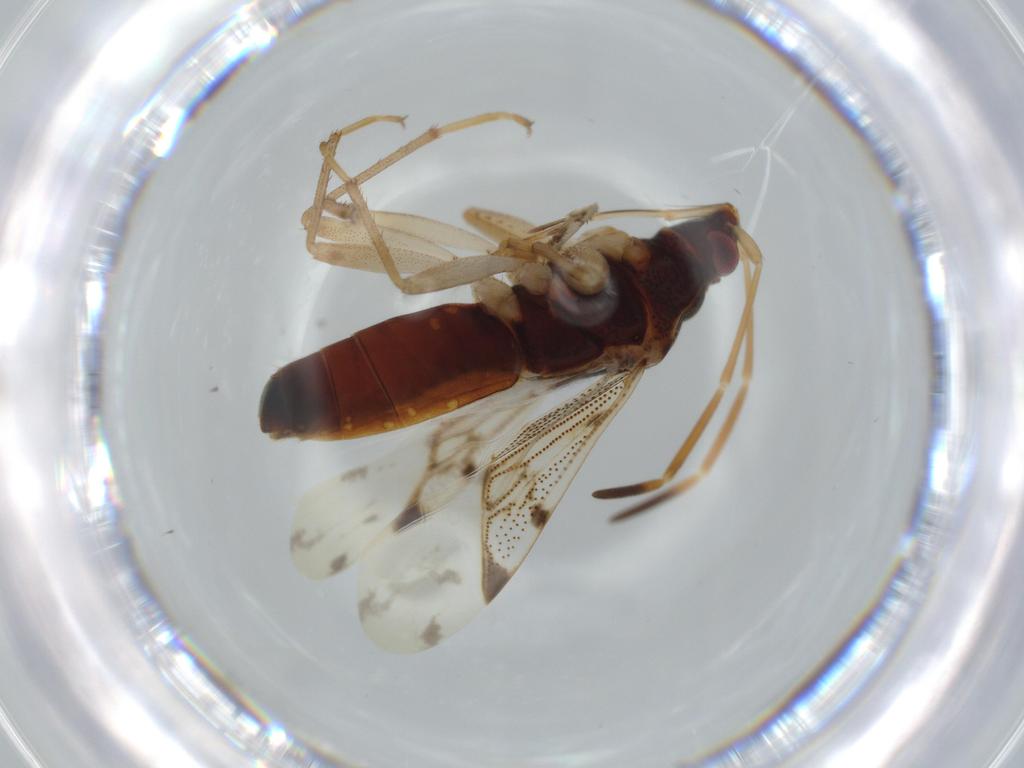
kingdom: Animalia
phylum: Arthropoda
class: Insecta
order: Hemiptera
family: Rhyparochromidae
